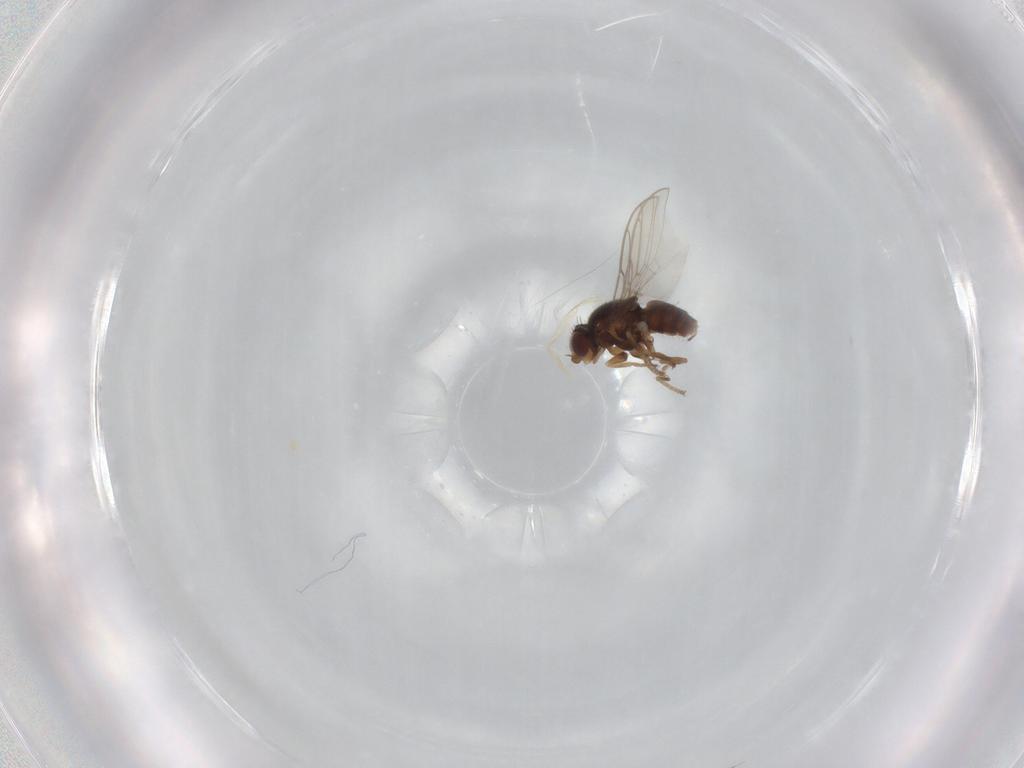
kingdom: Animalia
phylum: Arthropoda
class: Insecta
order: Diptera
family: Chloropidae
